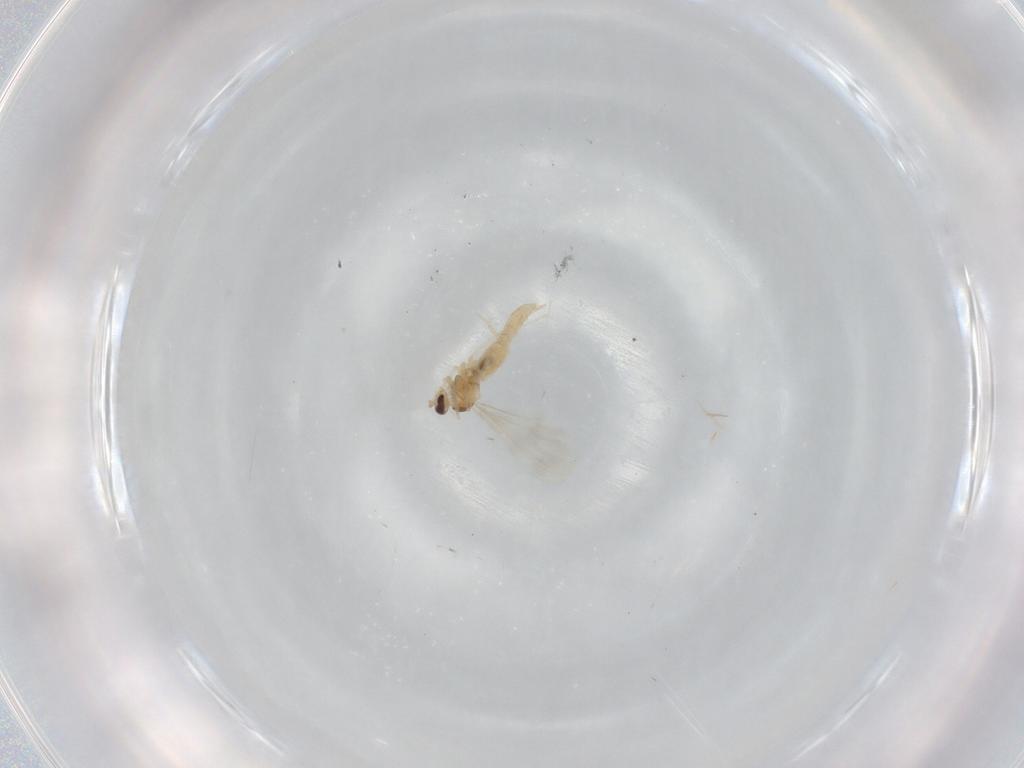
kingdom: Animalia
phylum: Arthropoda
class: Insecta
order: Diptera
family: Cecidomyiidae
